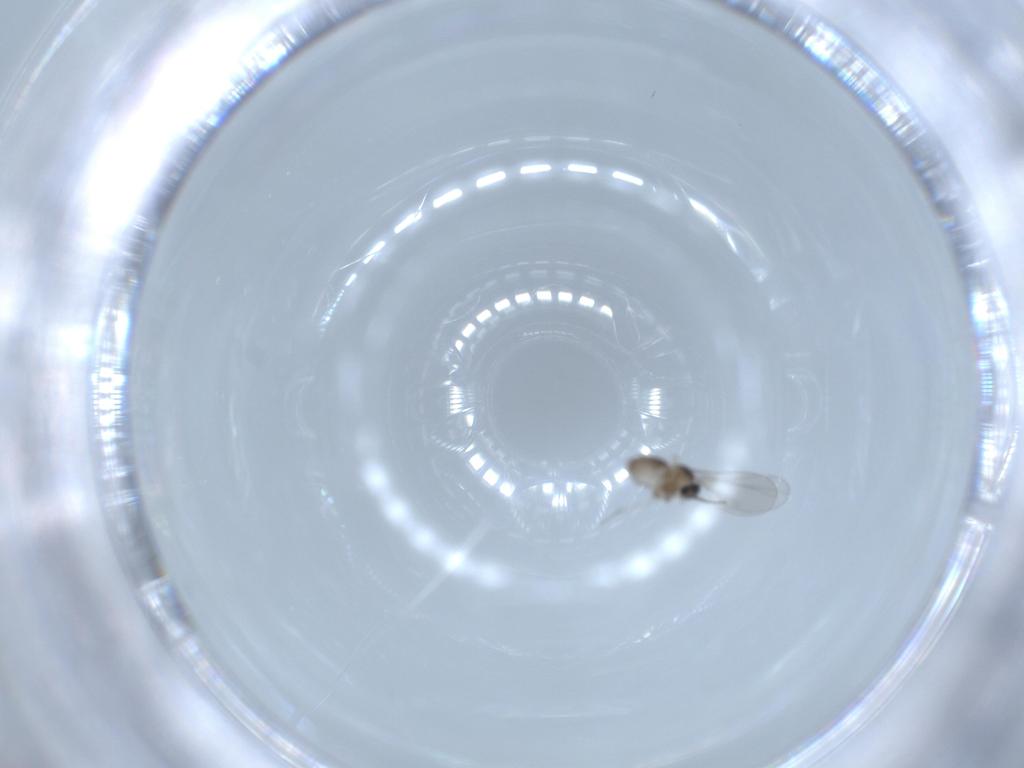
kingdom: Animalia
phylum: Arthropoda
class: Insecta
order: Diptera
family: Cecidomyiidae
